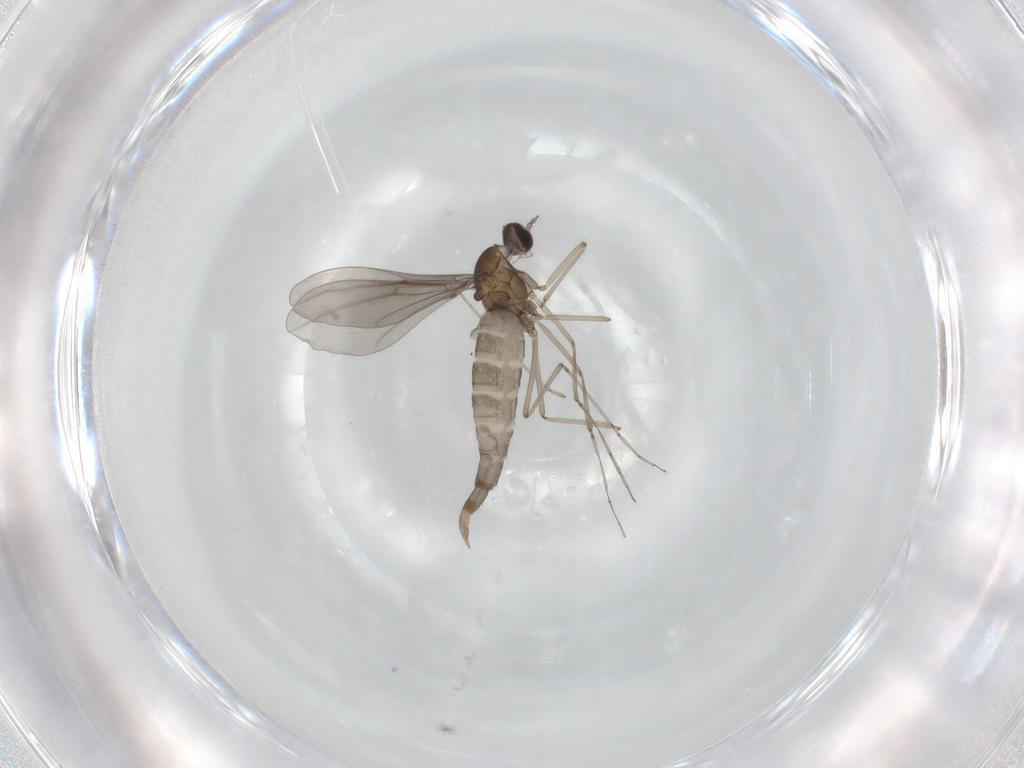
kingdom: Animalia
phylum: Arthropoda
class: Insecta
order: Diptera
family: Cecidomyiidae
